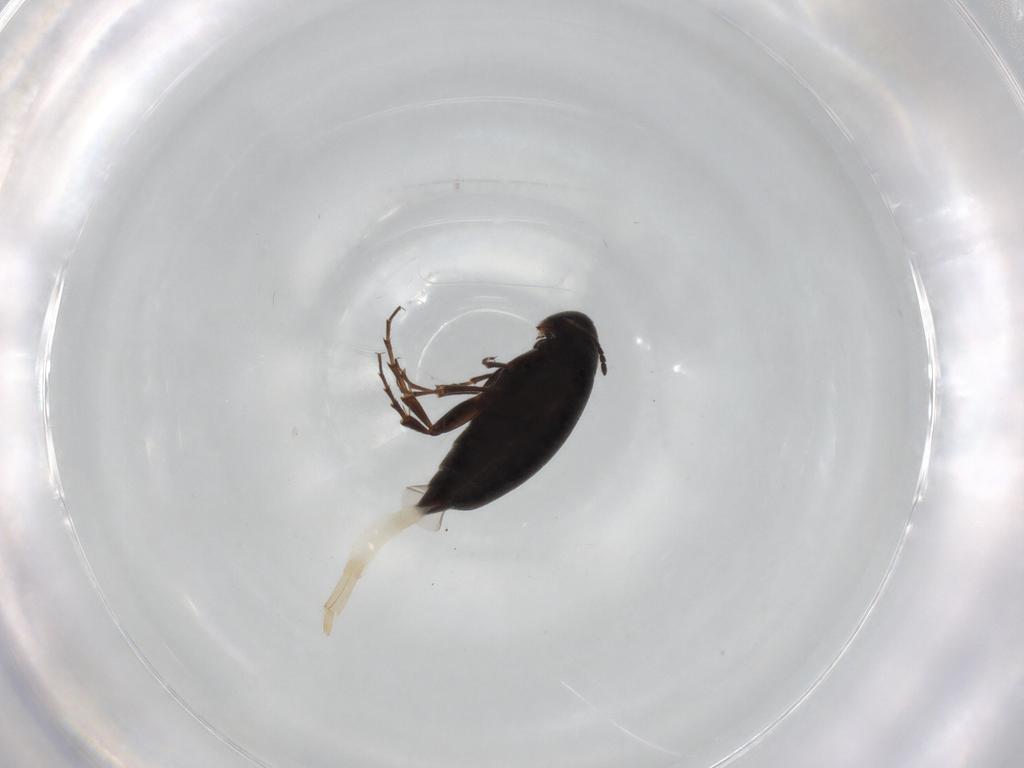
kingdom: Animalia
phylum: Arthropoda
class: Insecta
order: Coleoptera
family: Scraptiidae
